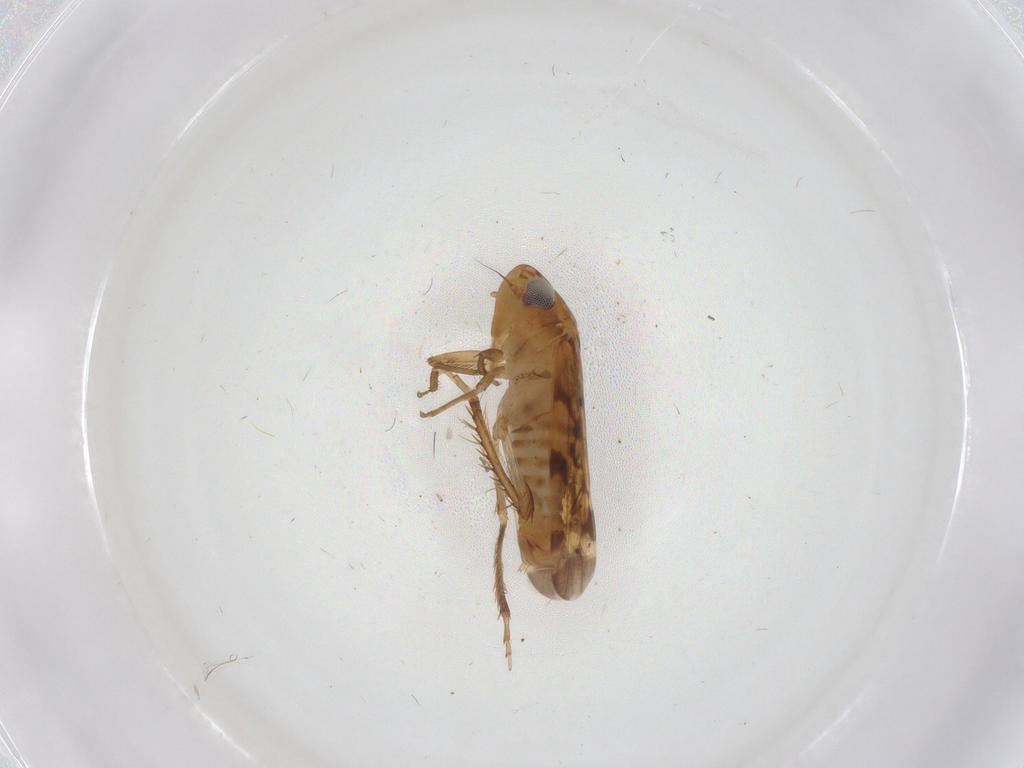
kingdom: Animalia
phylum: Arthropoda
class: Insecta
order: Hemiptera
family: Cicadellidae
